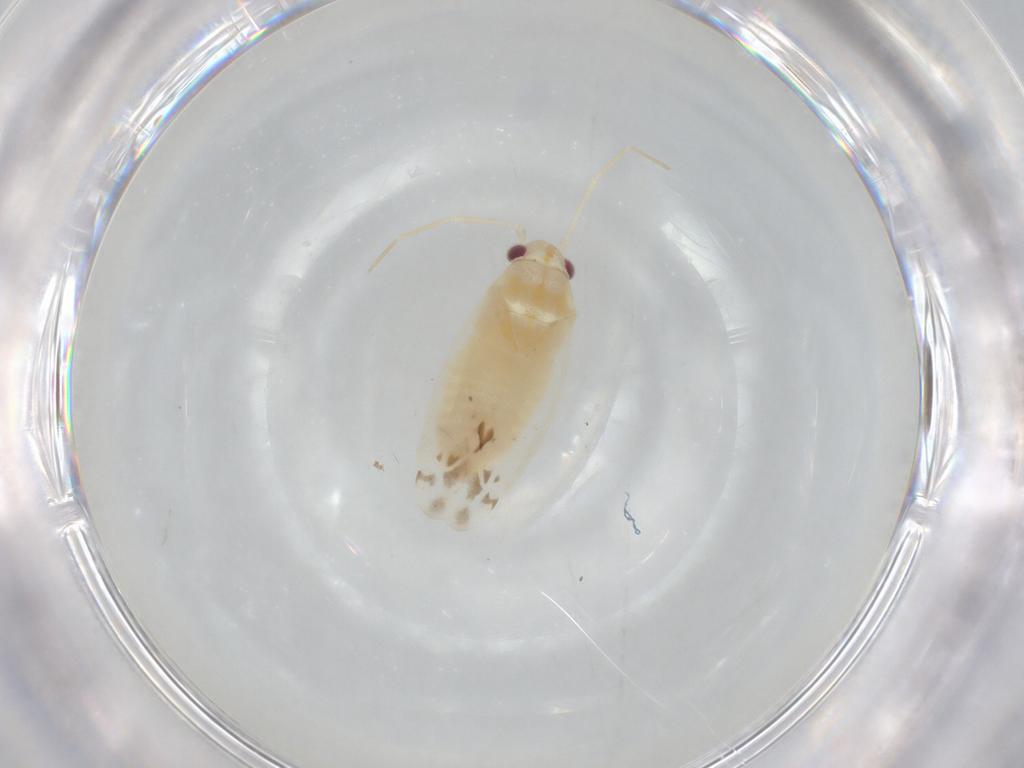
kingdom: Animalia
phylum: Arthropoda
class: Insecta
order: Hemiptera
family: Miridae
